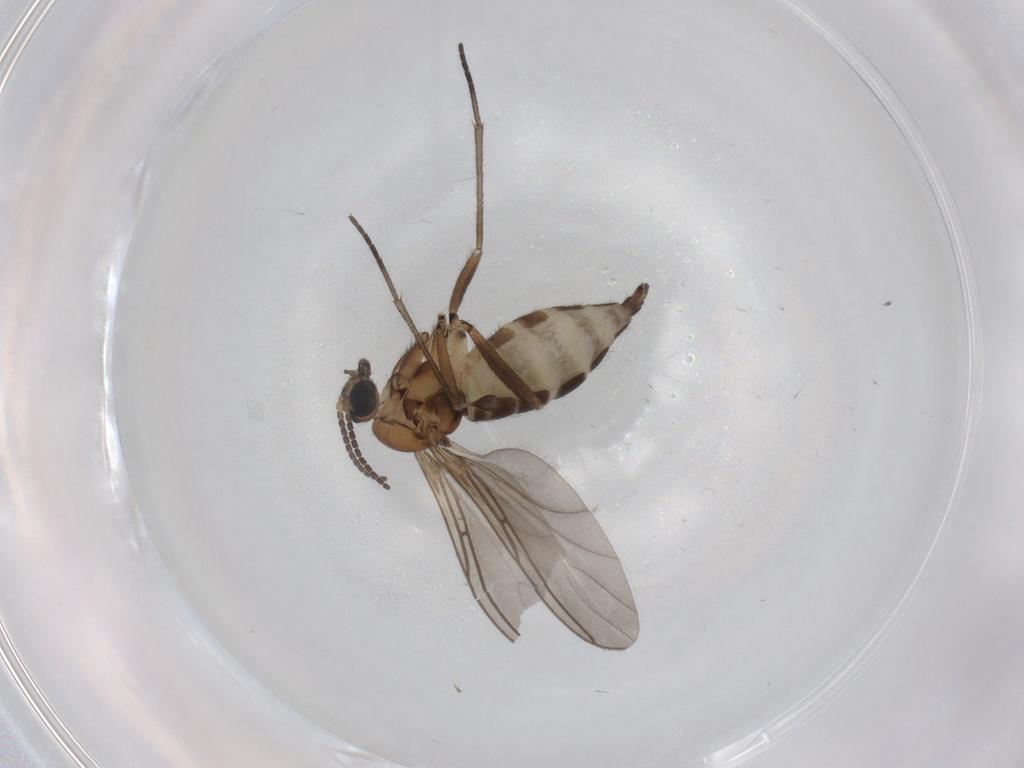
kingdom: Animalia
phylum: Arthropoda
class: Insecta
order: Diptera
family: Sciaridae
